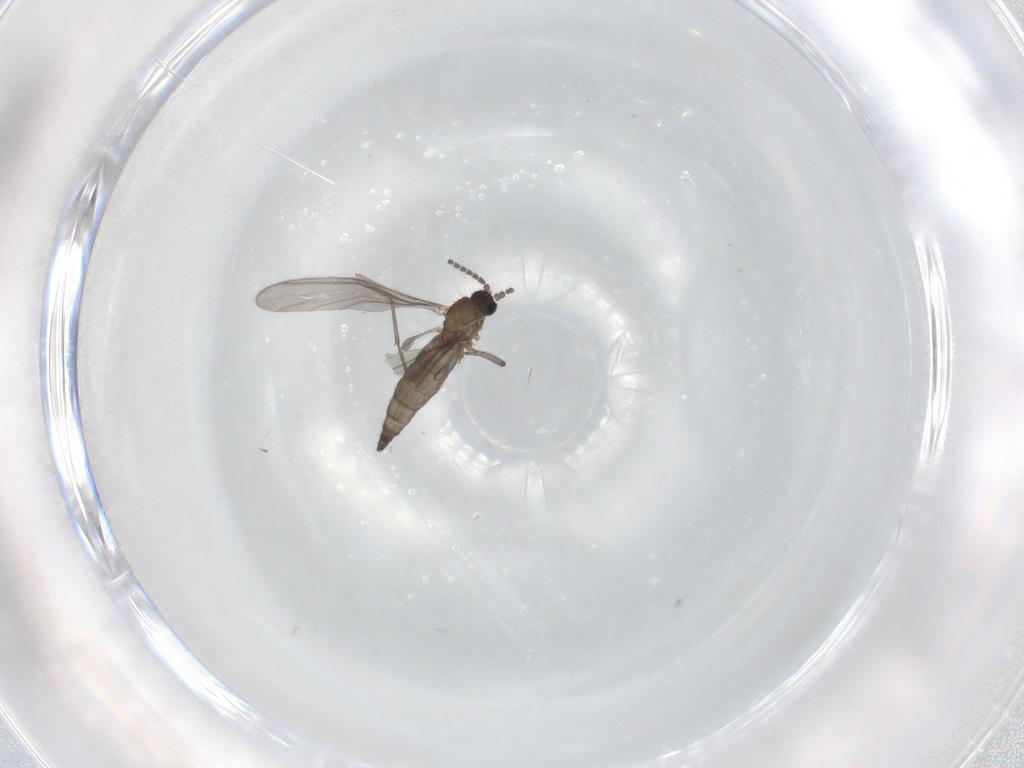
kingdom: Animalia
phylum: Arthropoda
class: Insecta
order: Diptera
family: Sciaridae
